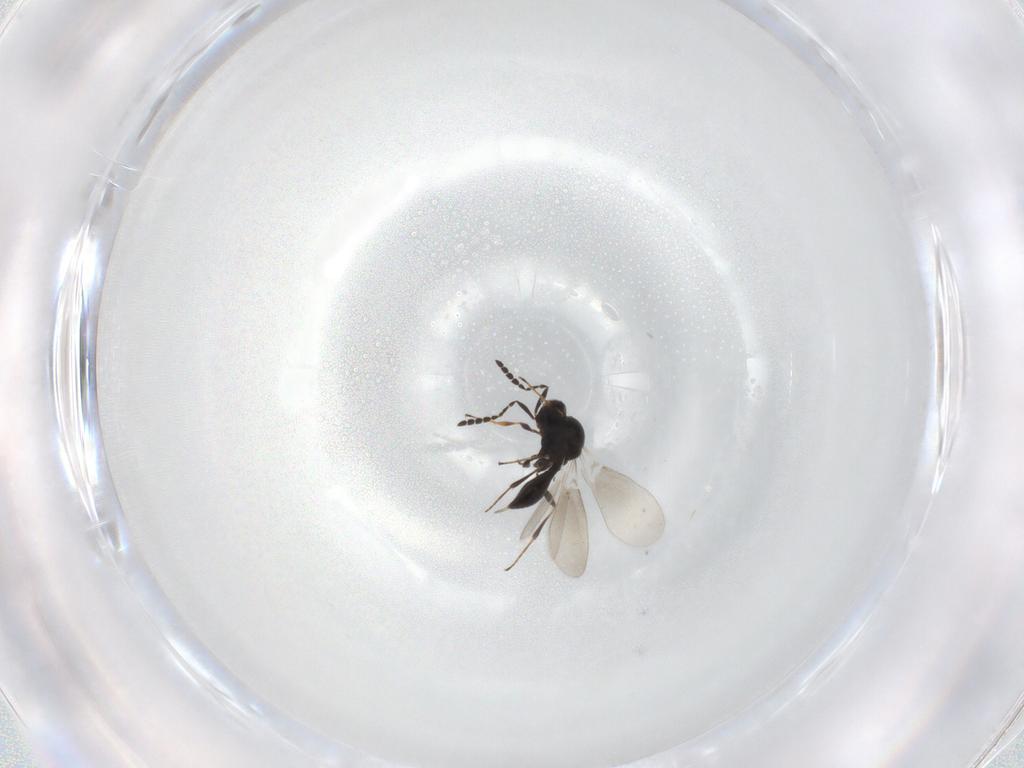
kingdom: Animalia
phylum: Arthropoda
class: Insecta
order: Hymenoptera
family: Platygastridae
